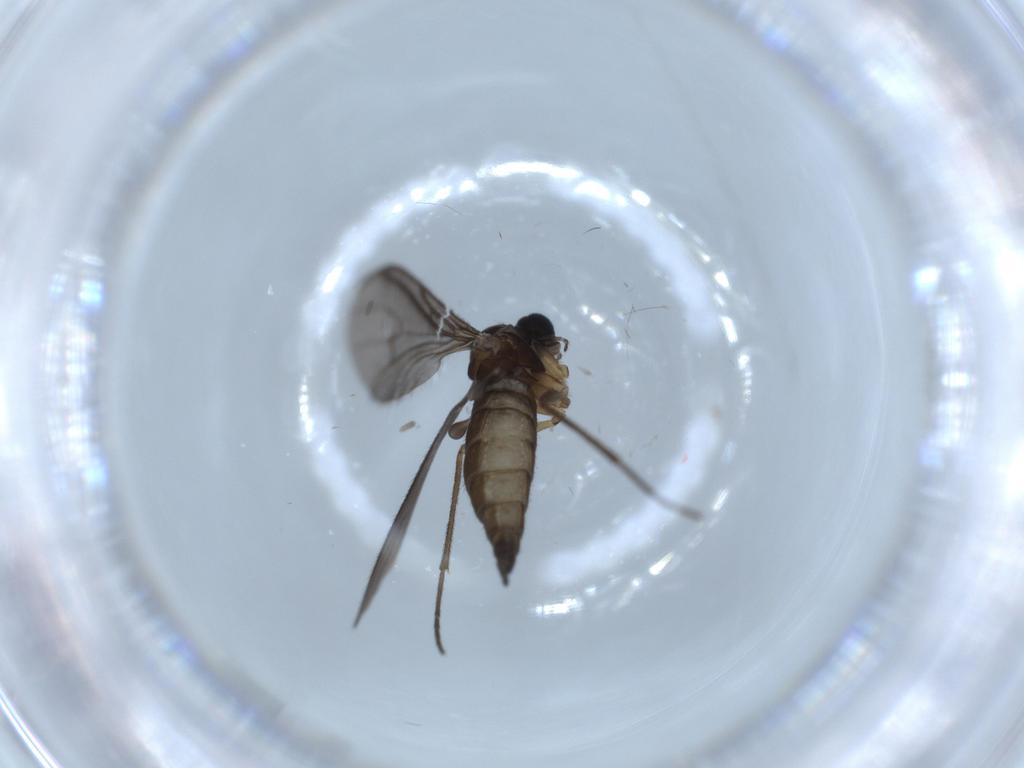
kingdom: Animalia
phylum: Arthropoda
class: Insecta
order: Diptera
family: Sciaridae
